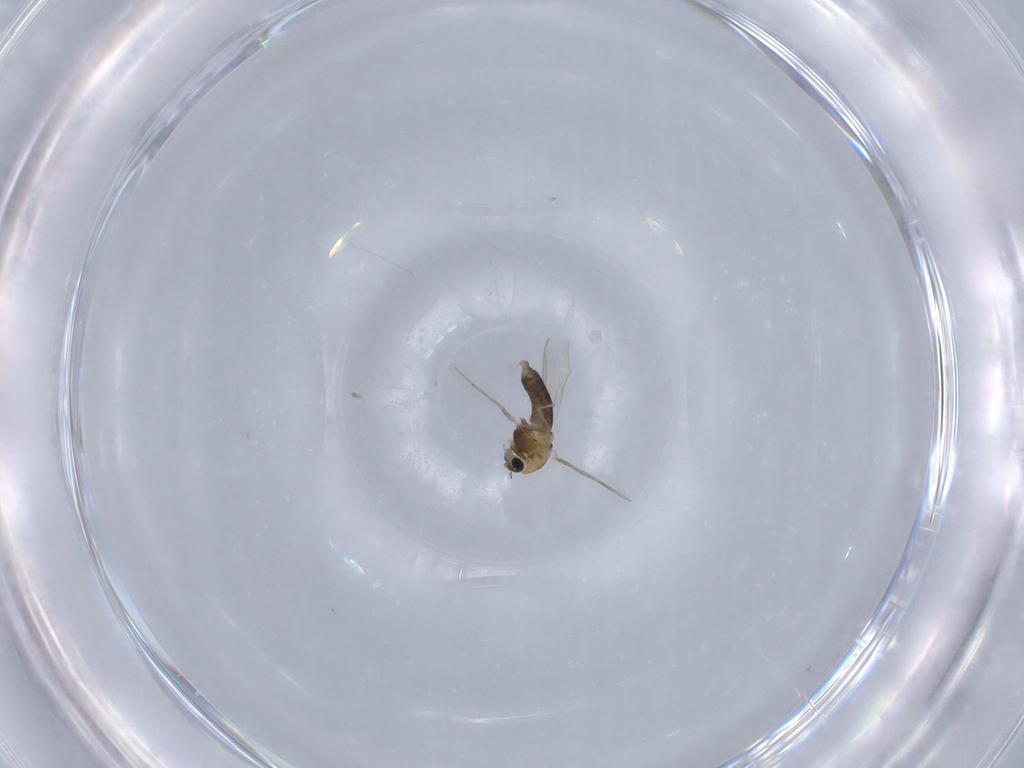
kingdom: Animalia
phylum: Arthropoda
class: Insecta
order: Diptera
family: Chironomidae
